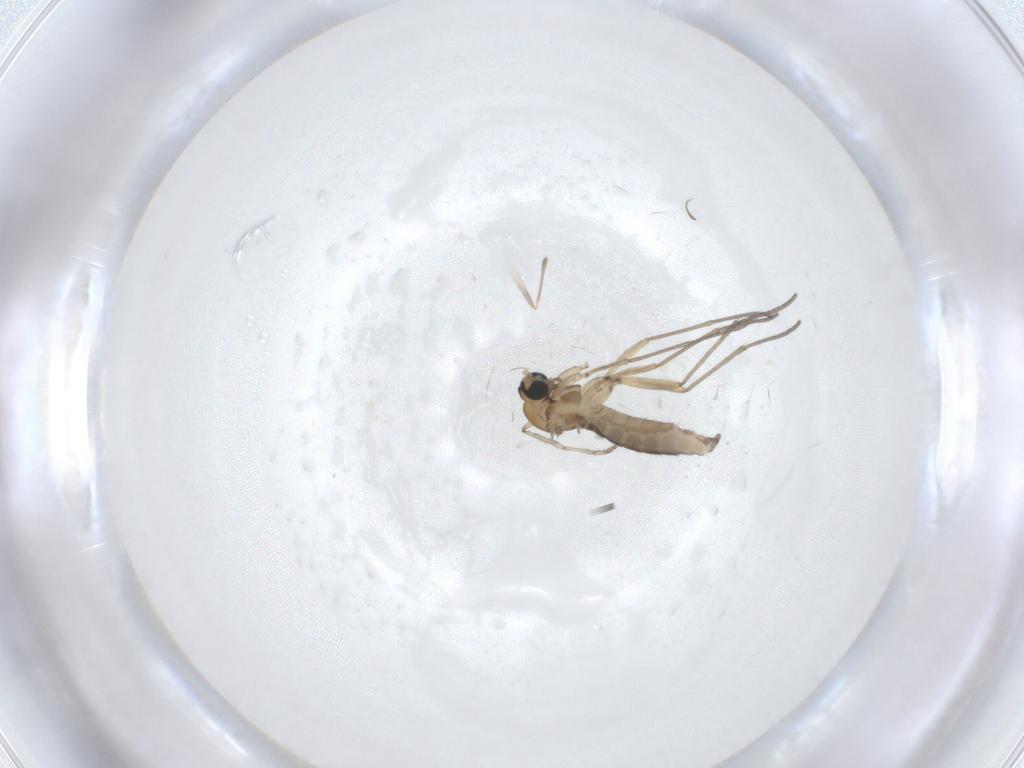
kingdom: Animalia
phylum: Arthropoda
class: Insecta
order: Diptera
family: Sciaridae
